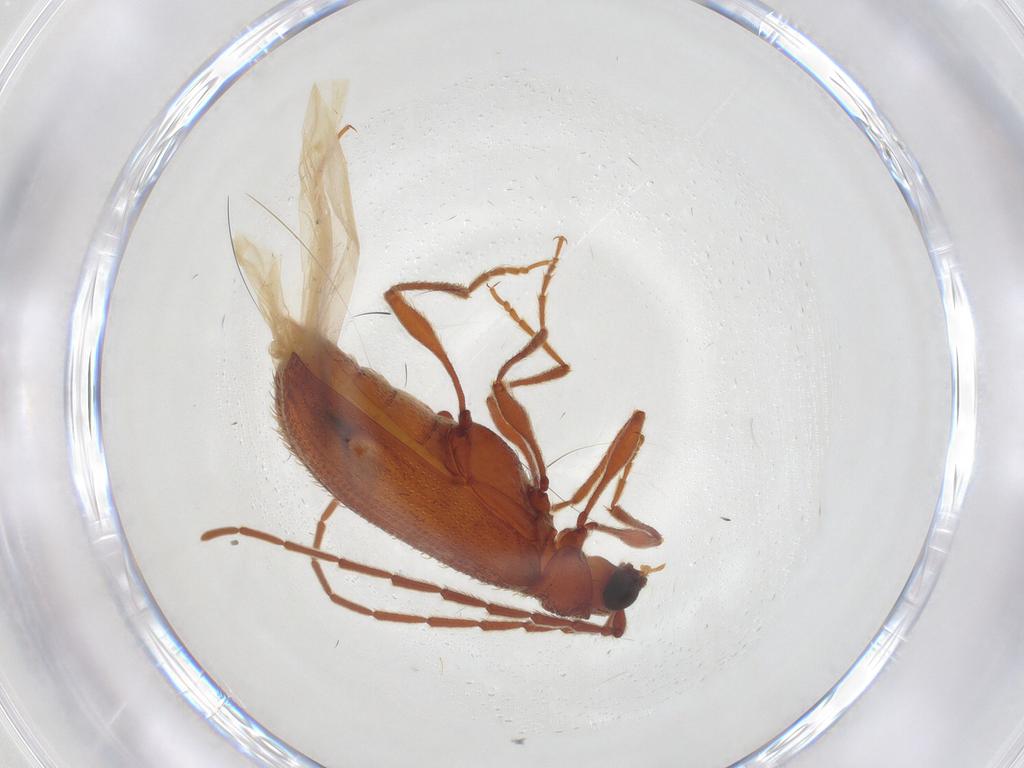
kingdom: Animalia
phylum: Arthropoda
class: Insecta
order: Coleoptera
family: Ptinidae
